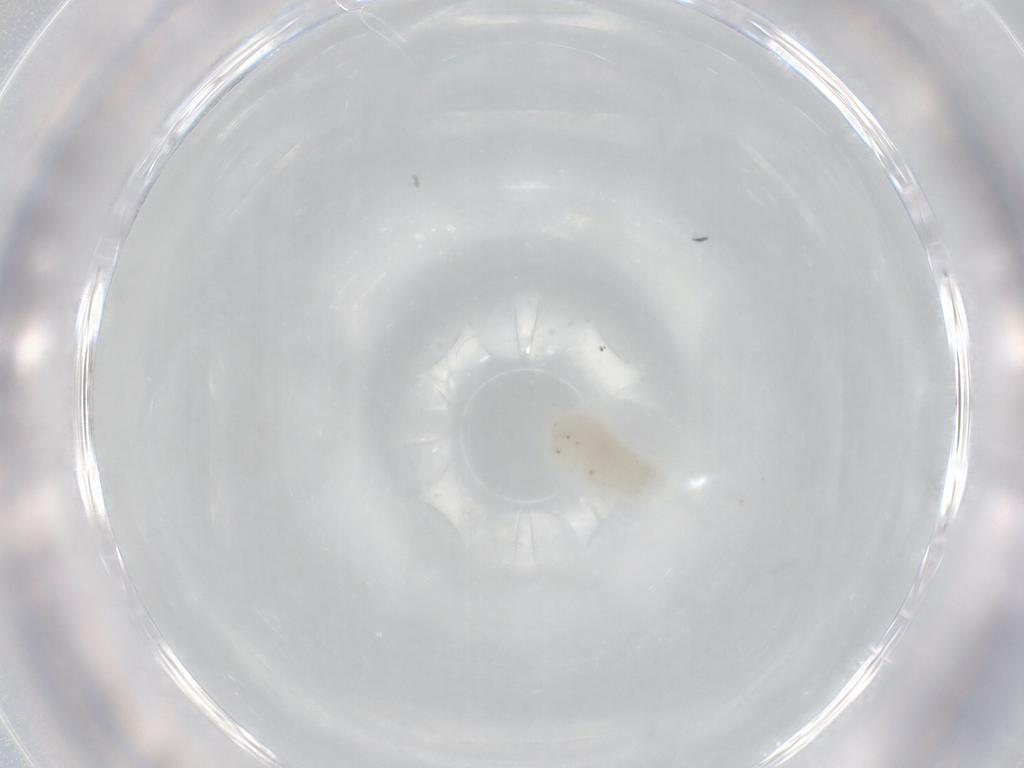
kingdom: Animalia
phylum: Arthropoda
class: Copepoda
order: Cyclopoida
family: Cyclopidae
